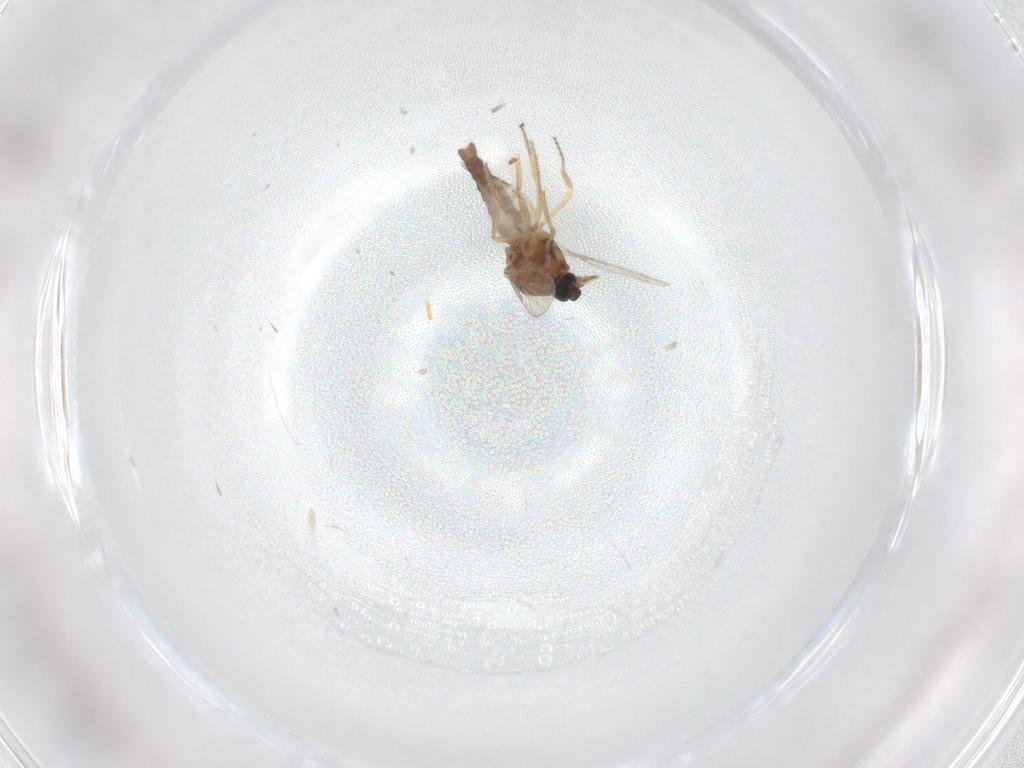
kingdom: Animalia
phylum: Arthropoda
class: Insecta
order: Diptera
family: Ceratopogonidae
